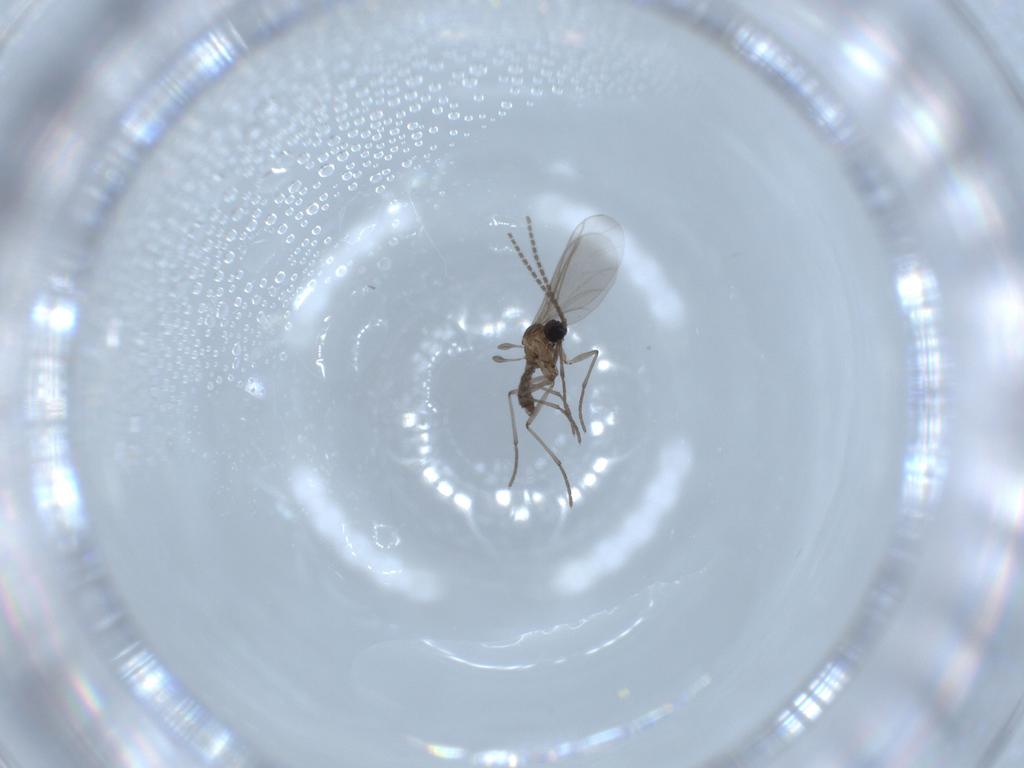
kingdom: Animalia
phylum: Arthropoda
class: Insecta
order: Diptera
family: Sciaridae
